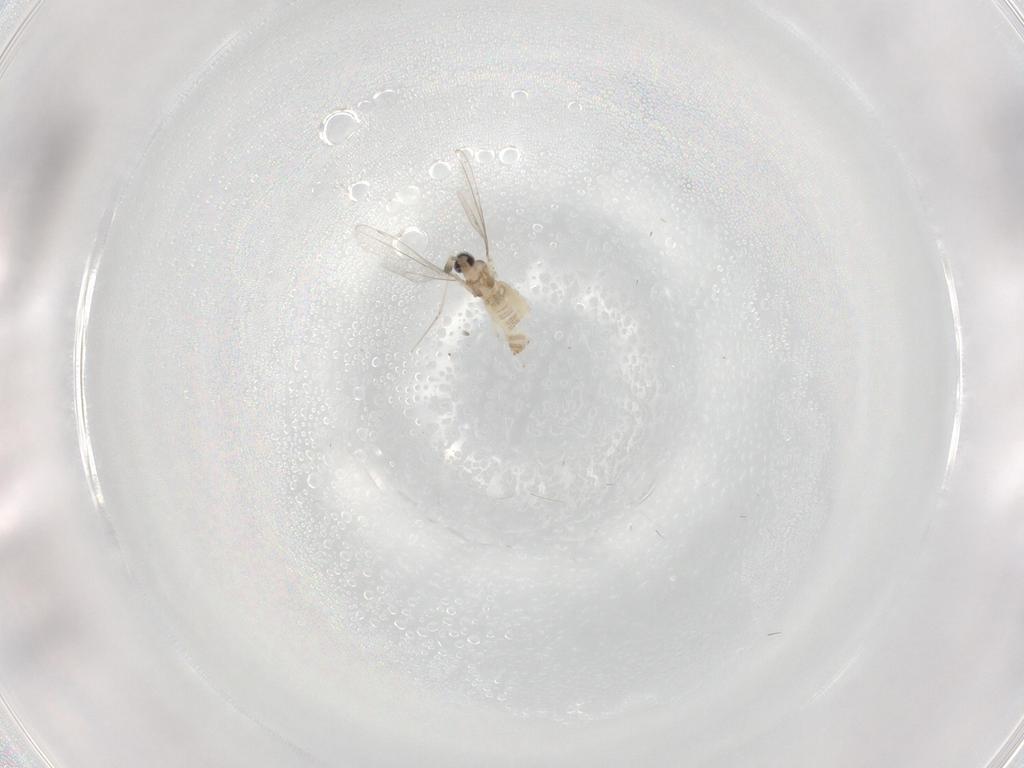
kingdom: Animalia
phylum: Arthropoda
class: Insecta
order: Diptera
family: Cecidomyiidae
